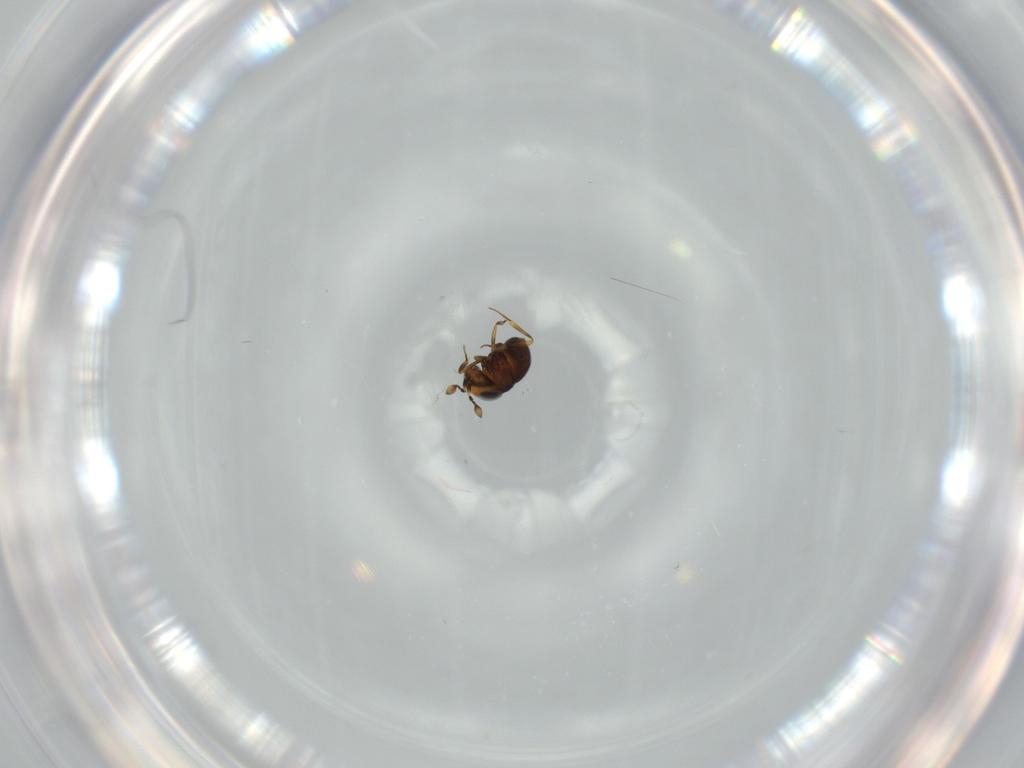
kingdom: Animalia
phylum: Arthropoda
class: Insecta
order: Hymenoptera
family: Scelionidae
